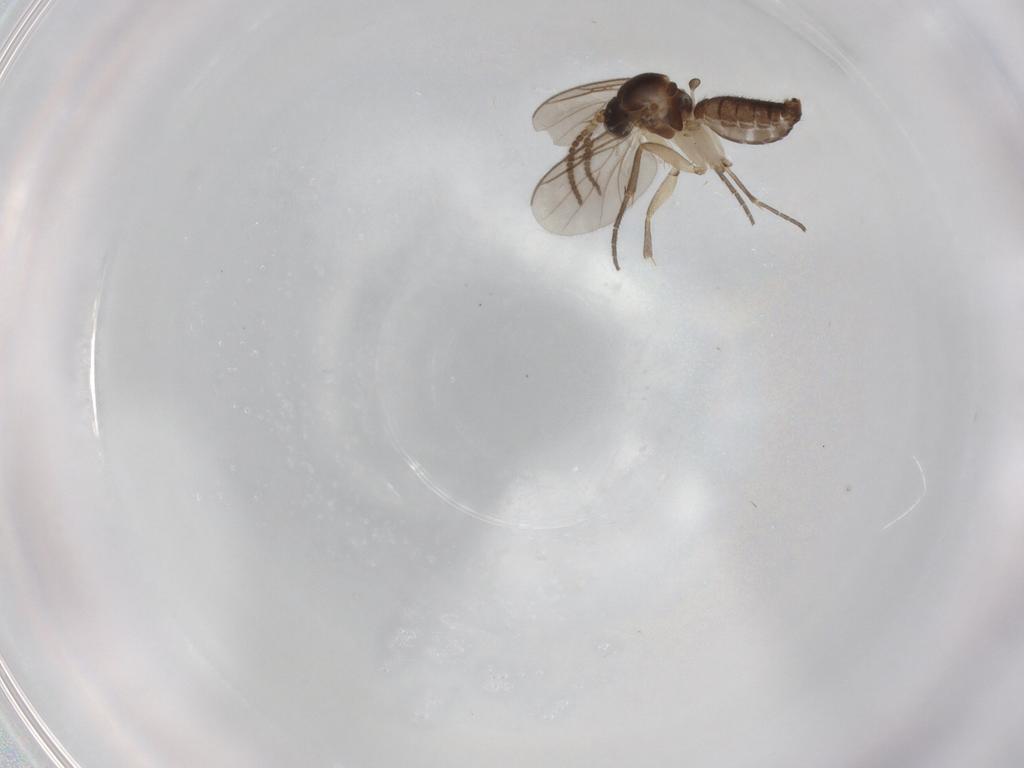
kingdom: Animalia
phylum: Arthropoda
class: Insecta
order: Diptera
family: Mycetophilidae
